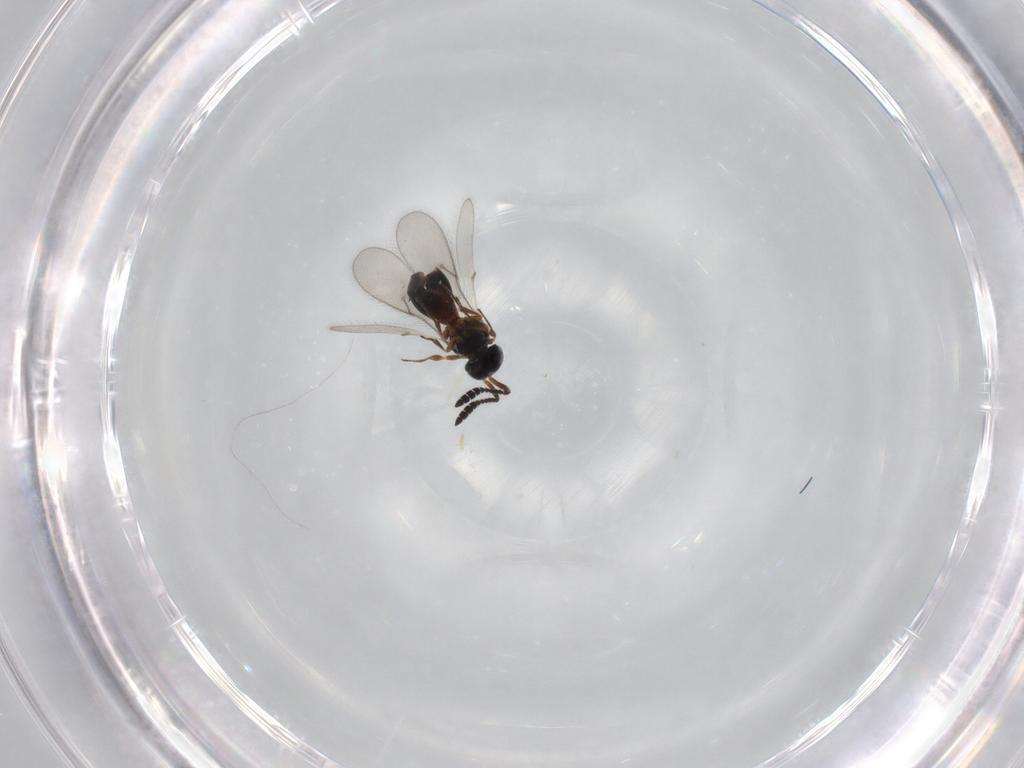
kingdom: Animalia
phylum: Arthropoda
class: Insecta
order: Hymenoptera
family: Scelionidae
